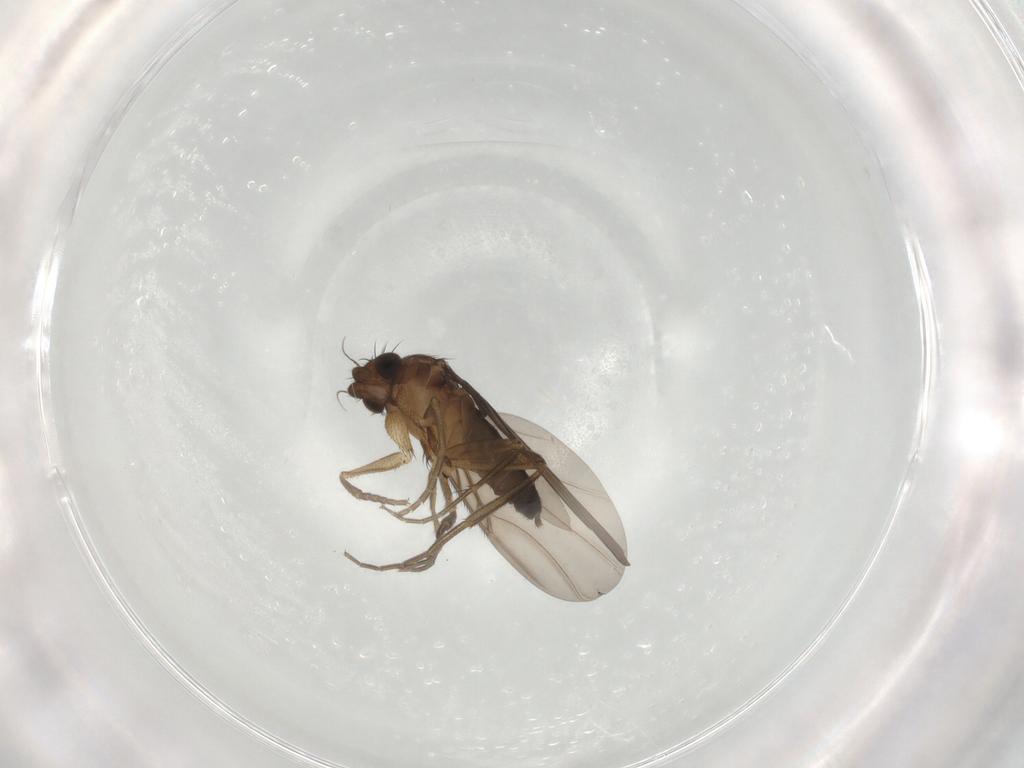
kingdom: Animalia
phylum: Arthropoda
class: Insecta
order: Diptera
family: Phoridae
